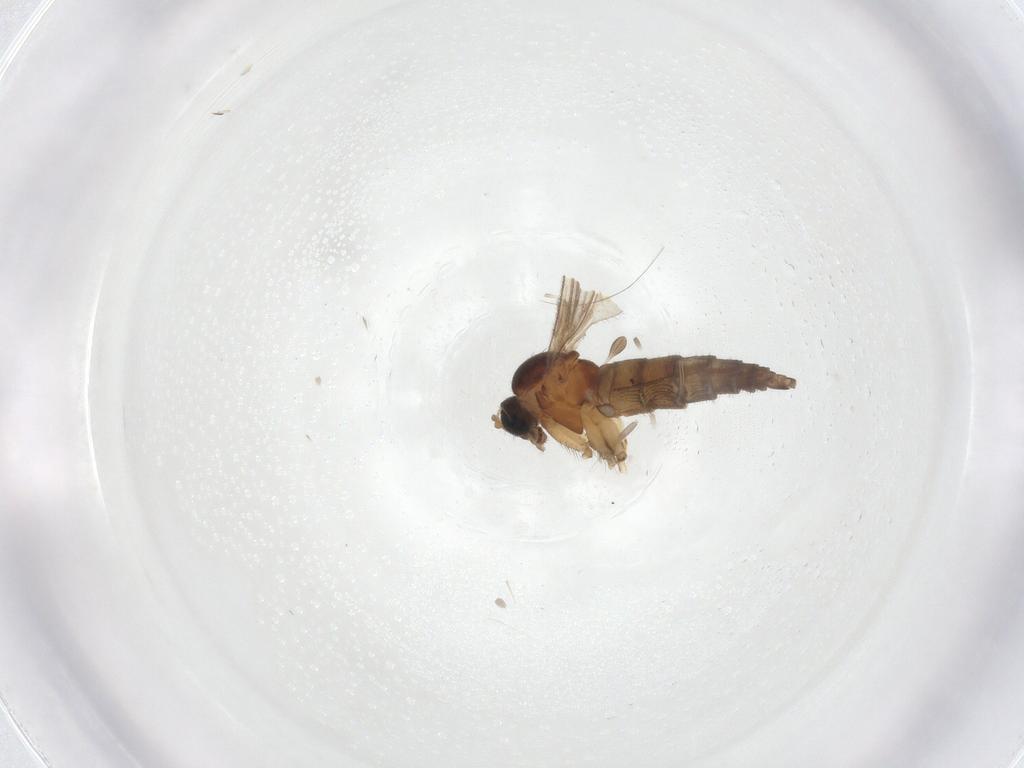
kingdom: Animalia
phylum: Arthropoda
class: Insecta
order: Diptera
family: Sciaridae
